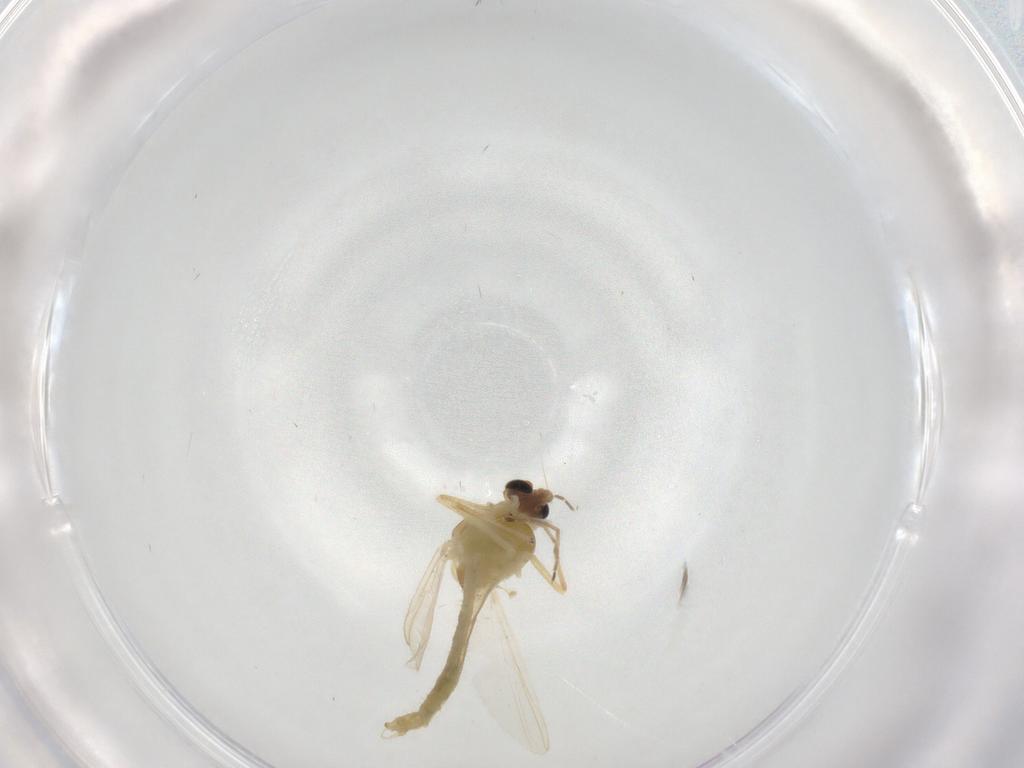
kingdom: Animalia
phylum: Arthropoda
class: Insecta
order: Diptera
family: Chironomidae
